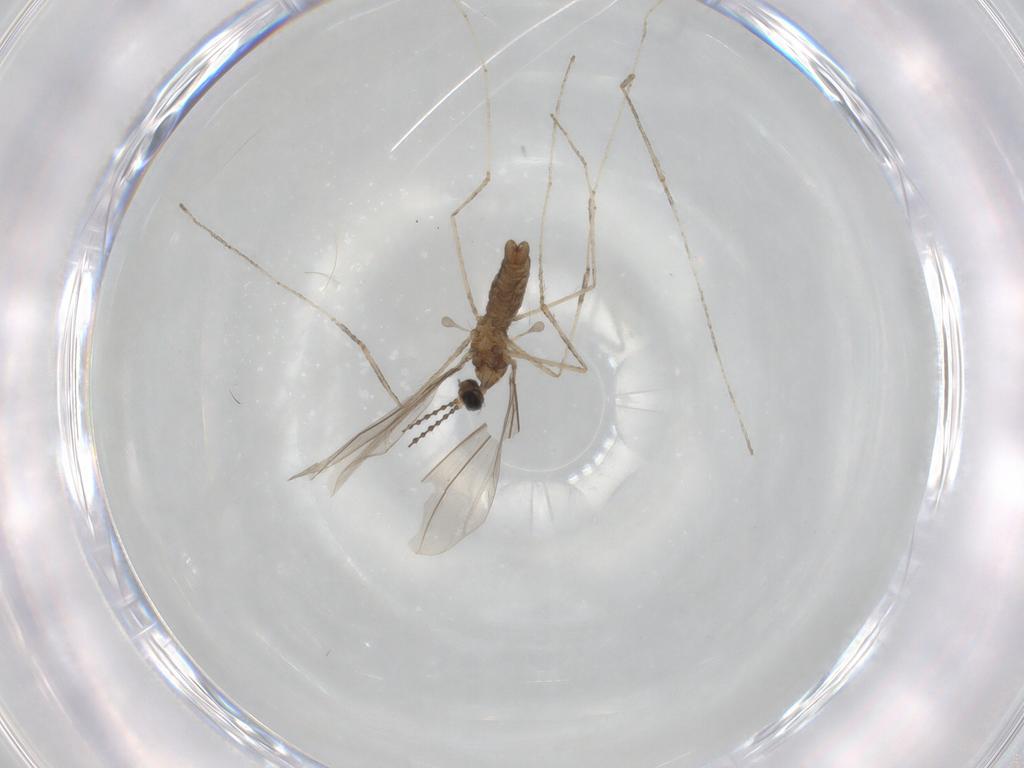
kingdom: Animalia
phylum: Arthropoda
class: Insecta
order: Diptera
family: Cecidomyiidae
